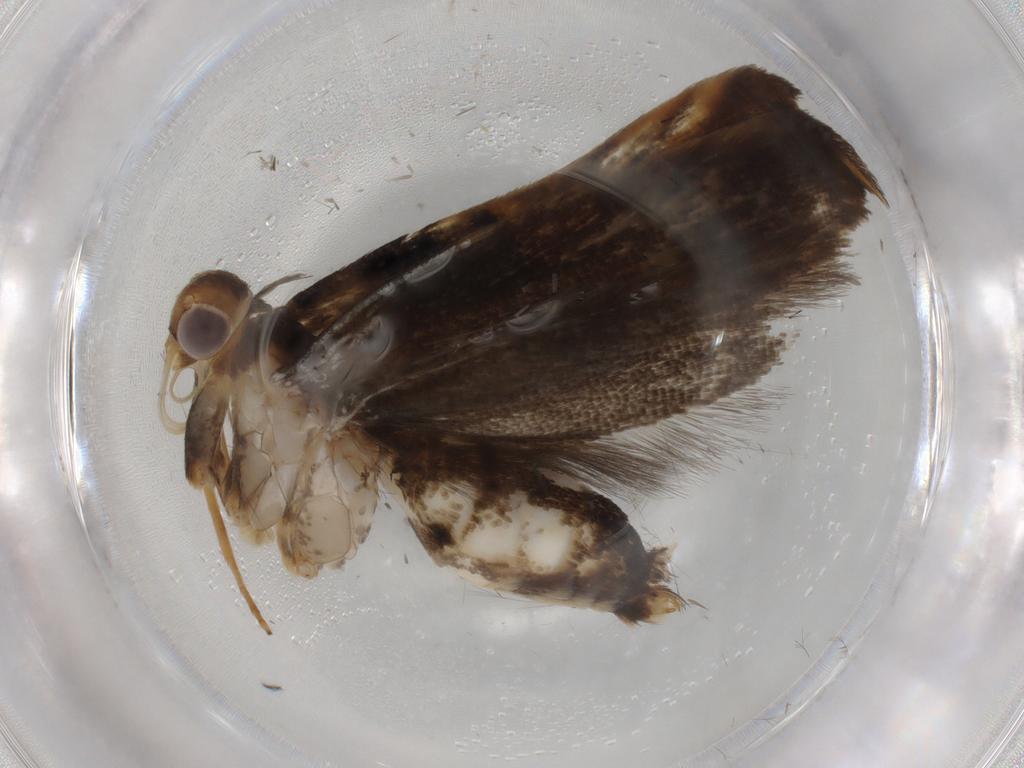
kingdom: Animalia
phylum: Arthropoda
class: Insecta
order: Lepidoptera
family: Gelechiidae
